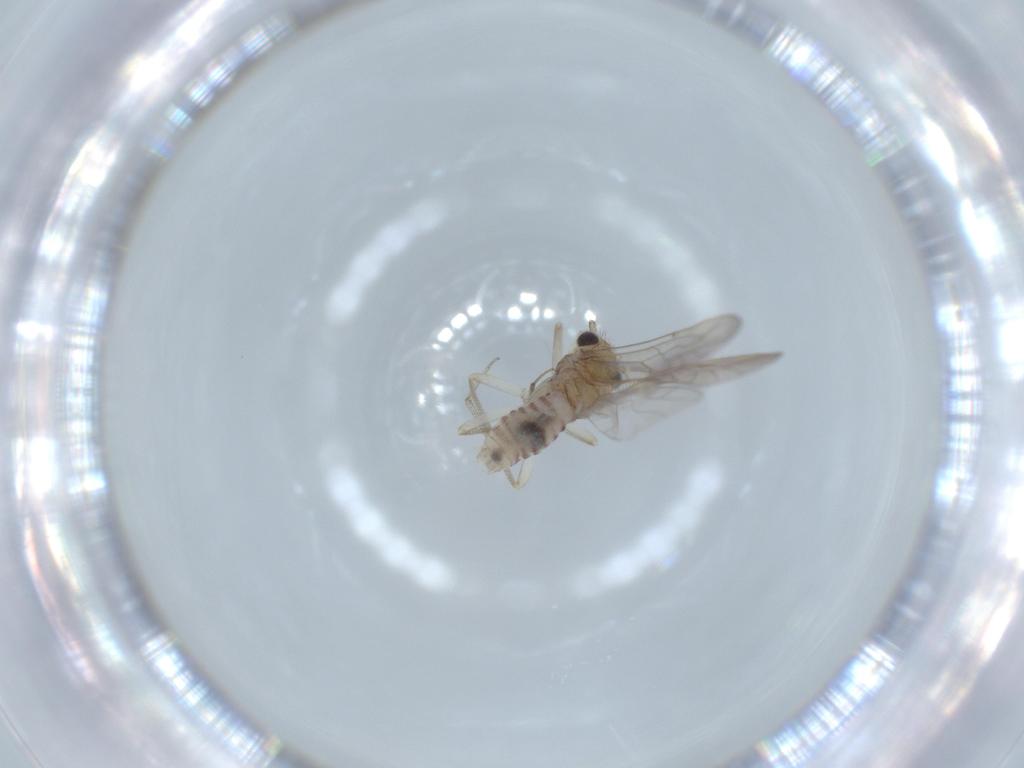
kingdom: Animalia
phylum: Arthropoda
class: Insecta
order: Psocodea
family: Caeciliusidae
